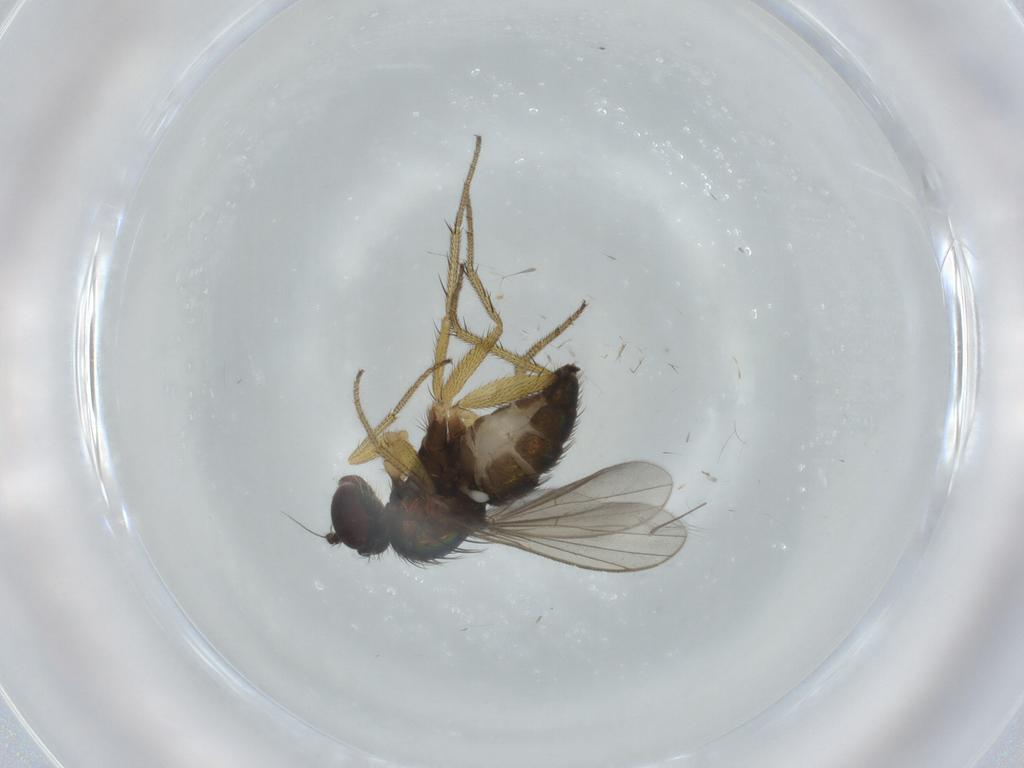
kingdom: Animalia
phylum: Arthropoda
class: Insecta
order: Diptera
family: Dolichopodidae
